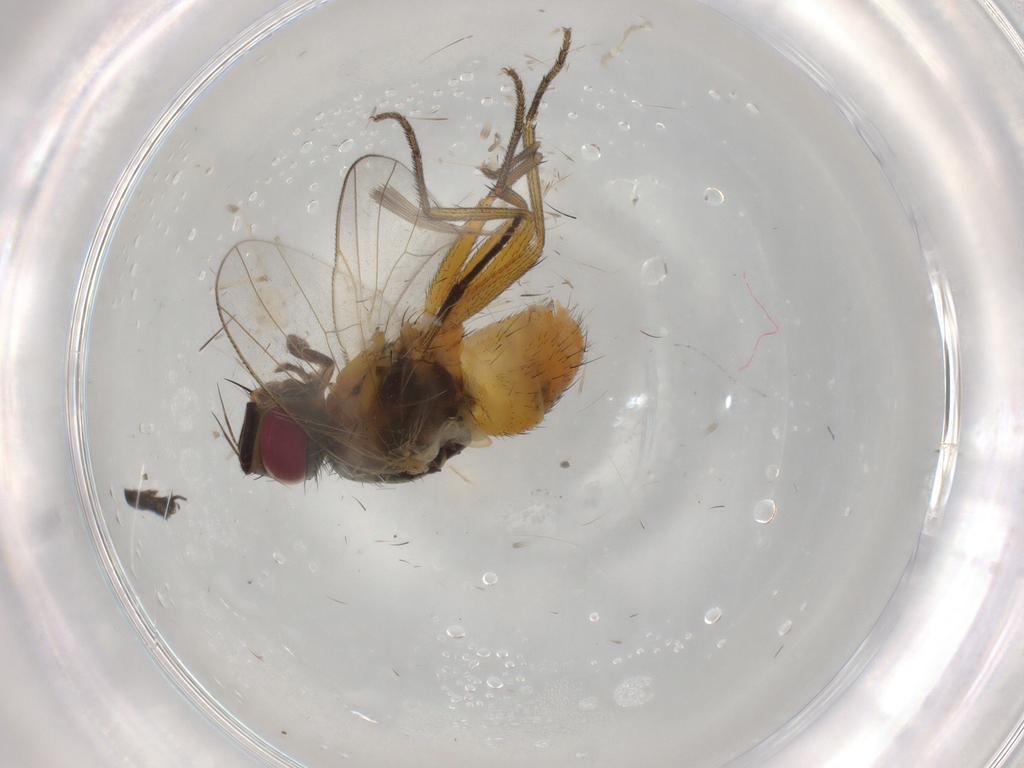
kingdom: Animalia
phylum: Arthropoda
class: Insecta
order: Diptera
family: Muscidae
